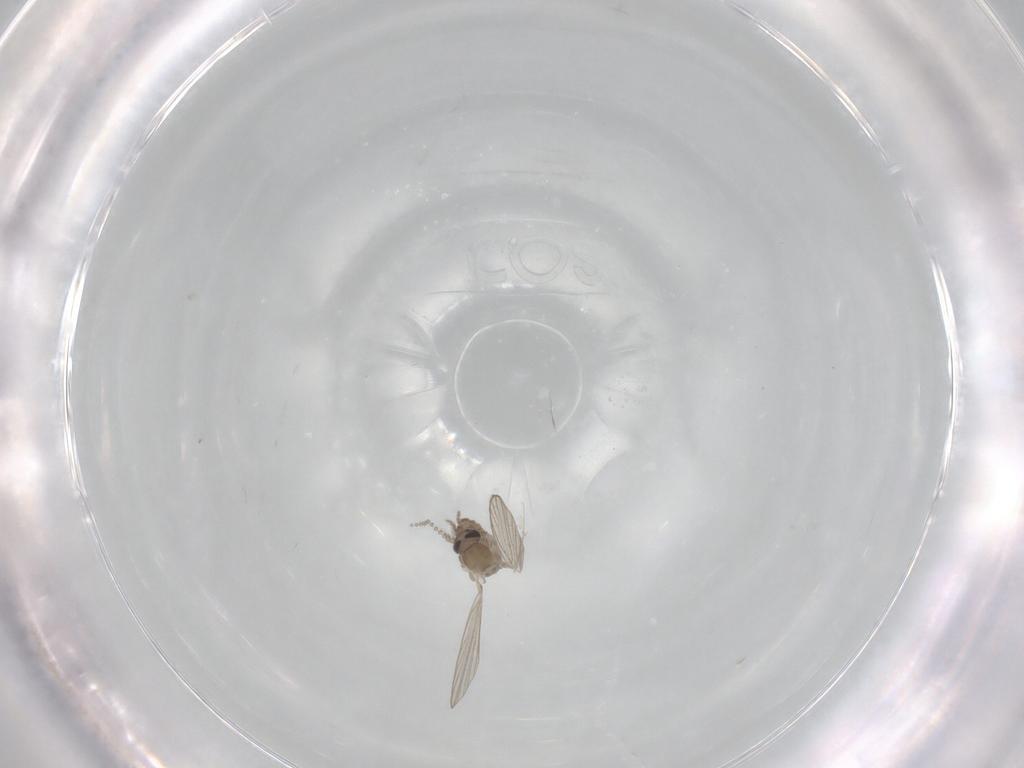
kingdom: Animalia
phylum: Arthropoda
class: Insecta
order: Diptera
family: Psychodidae
